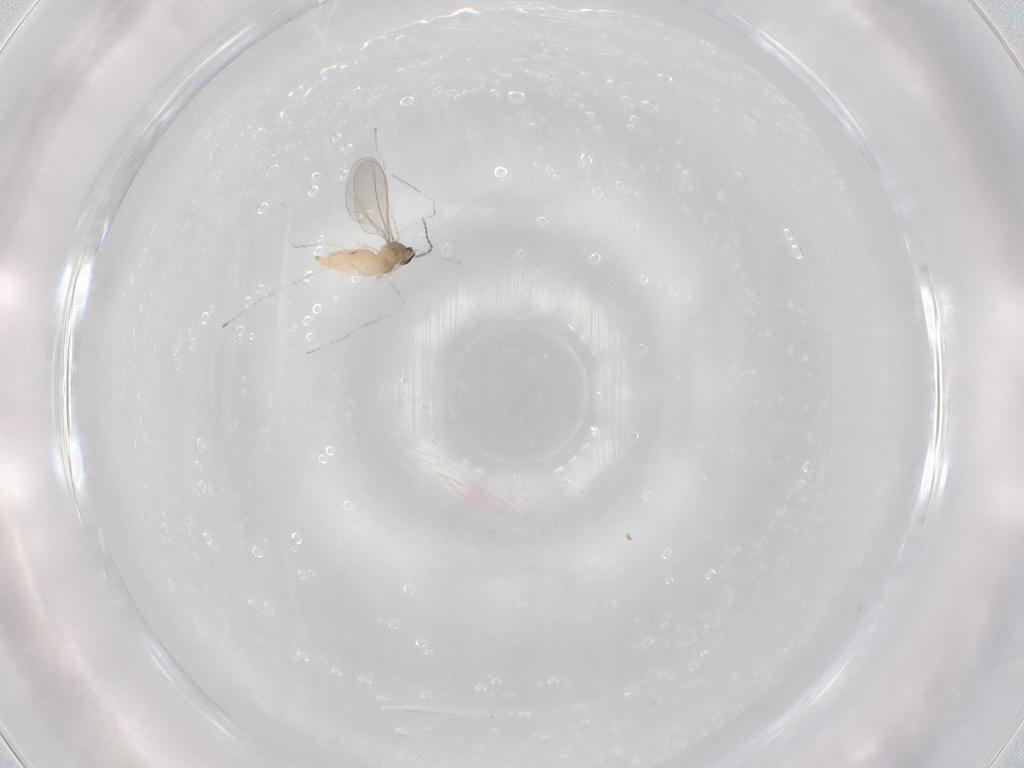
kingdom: Animalia
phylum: Arthropoda
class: Insecta
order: Diptera
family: Cecidomyiidae
